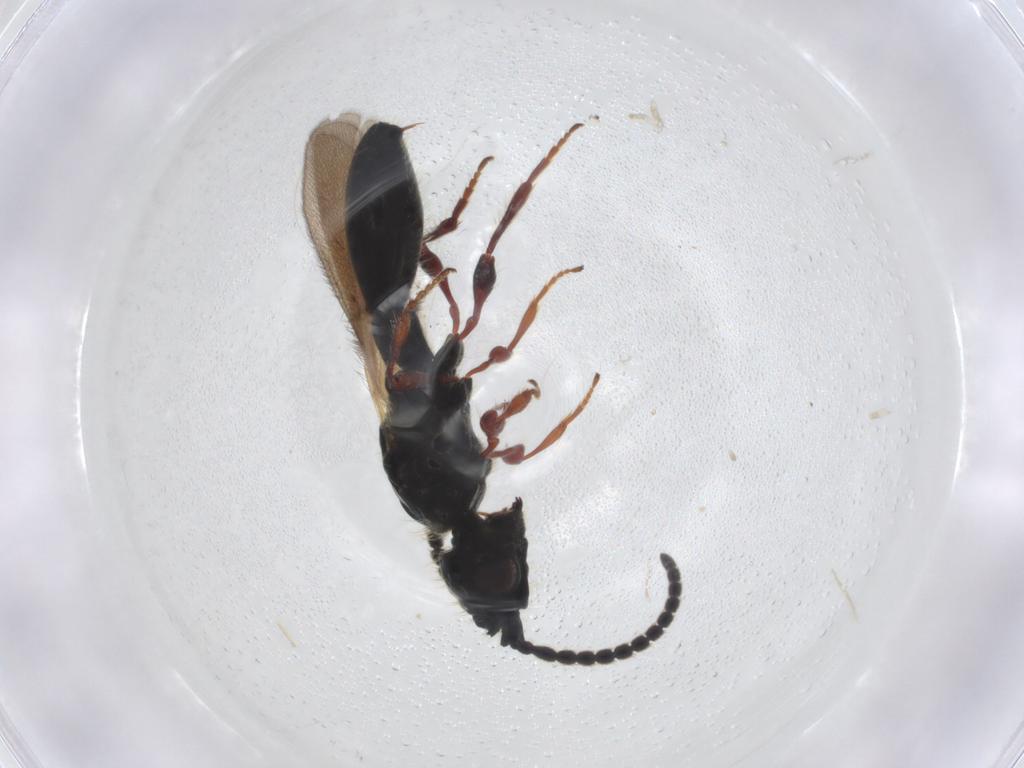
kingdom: Animalia
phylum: Arthropoda
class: Insecta
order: Hymenoptera
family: Diapriidae
